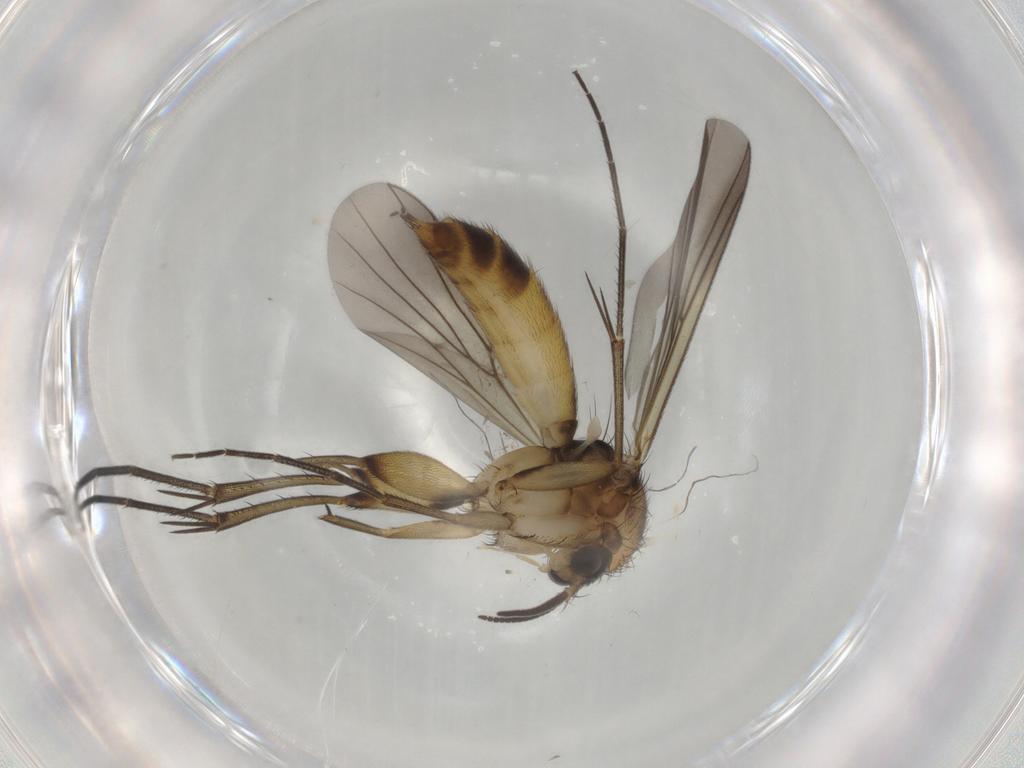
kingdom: Animalia
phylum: Arthropoda
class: Insecta
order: Diptera
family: Mycetophilidae
